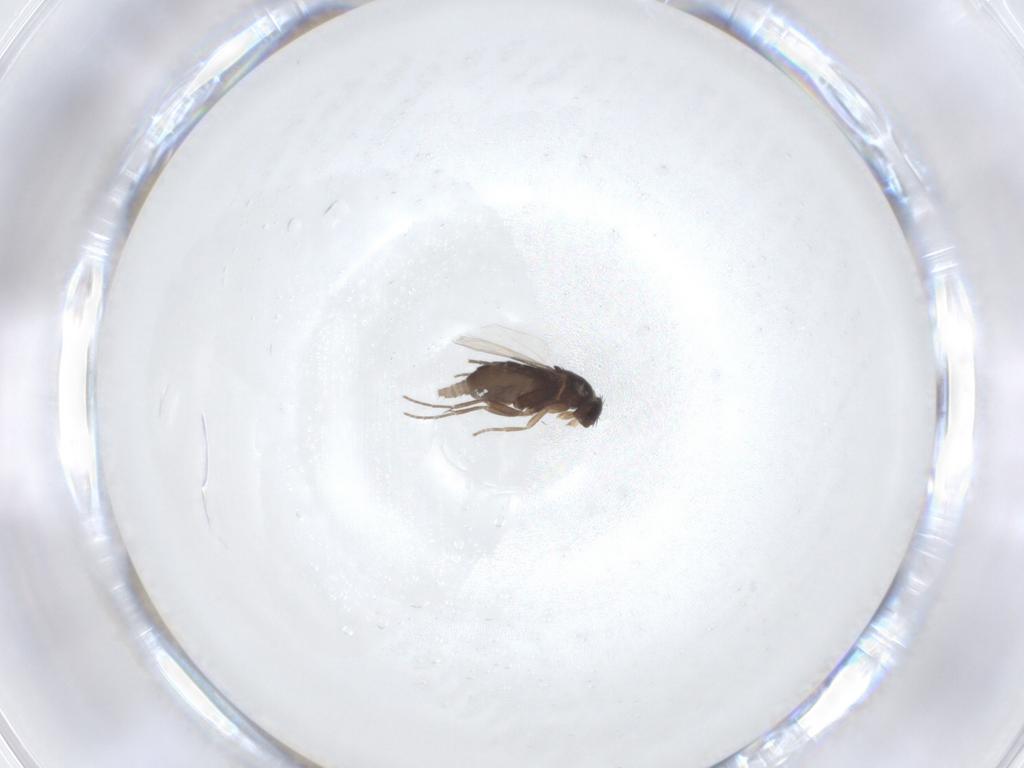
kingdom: Animalia
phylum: Arthropoda
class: Insecta
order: Diptera
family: Phoridae
